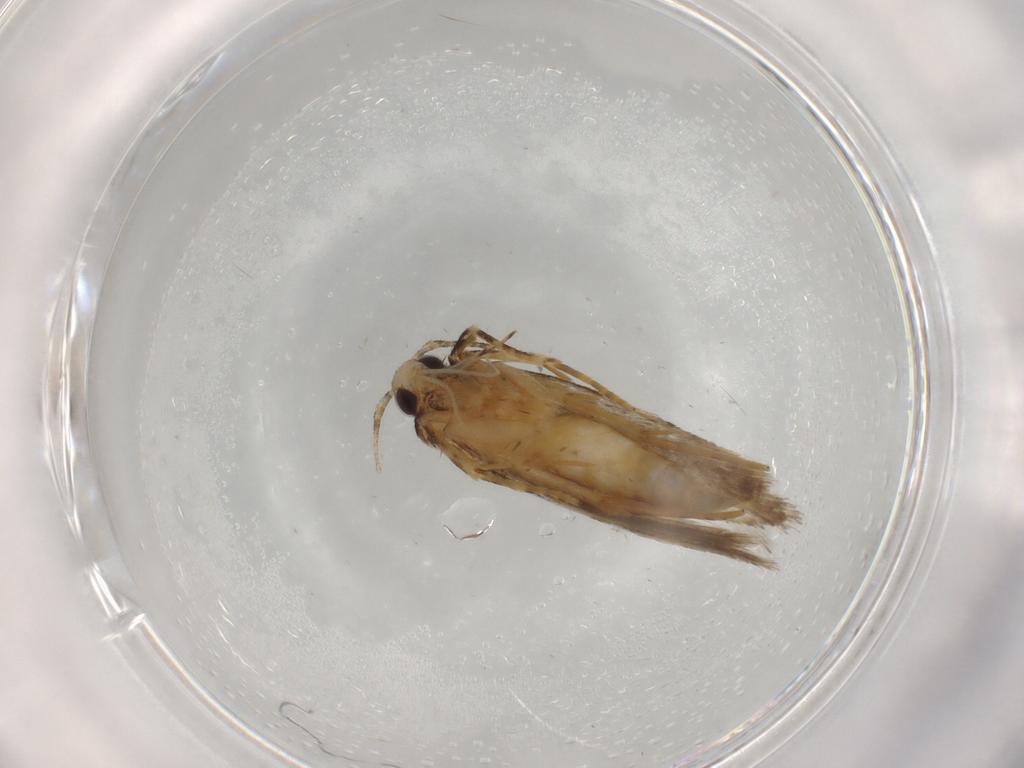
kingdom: Animalia
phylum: Arthropoda
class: Insecta
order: Lepidoptera
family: Autostichidae
